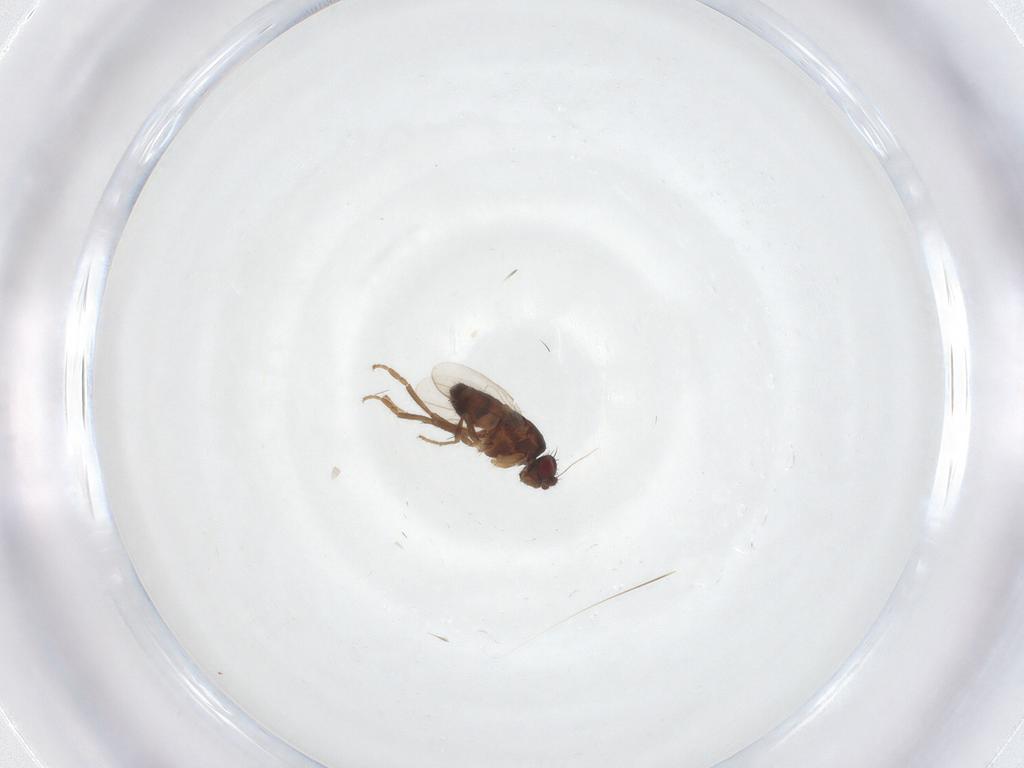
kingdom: Animalia
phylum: Arthropoda
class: Insecta
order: Diptera
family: Sphaeroceridae
